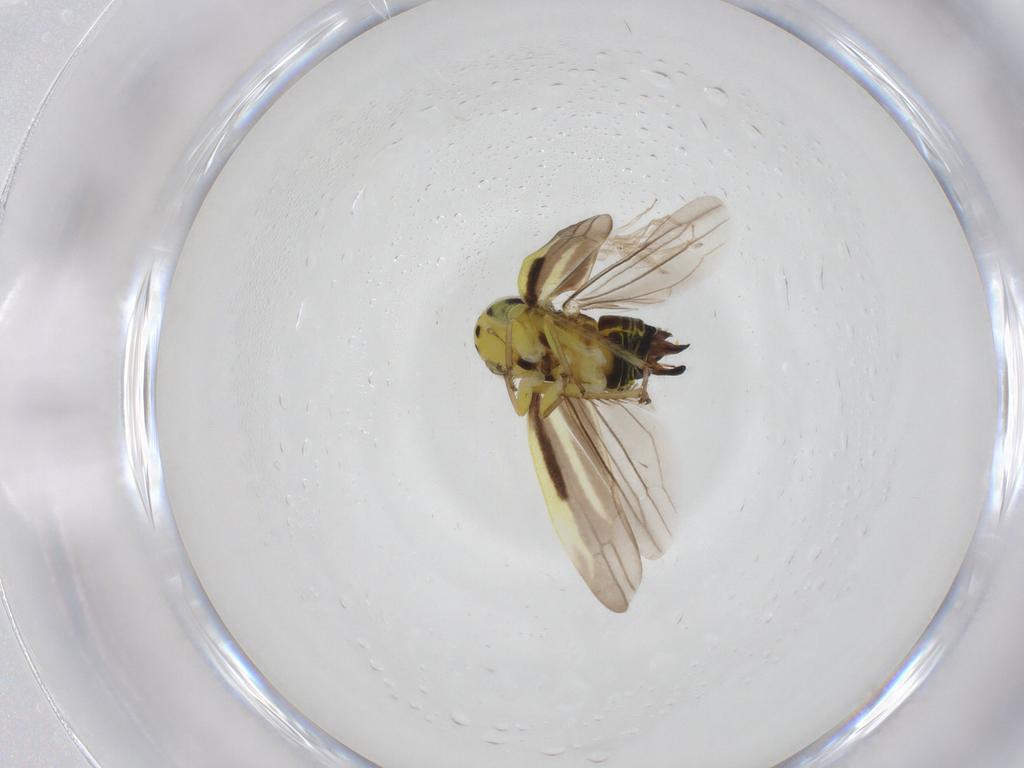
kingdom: Animalia
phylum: Arthropoda
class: Insecta
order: Hemiptera
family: Cicadellidae
